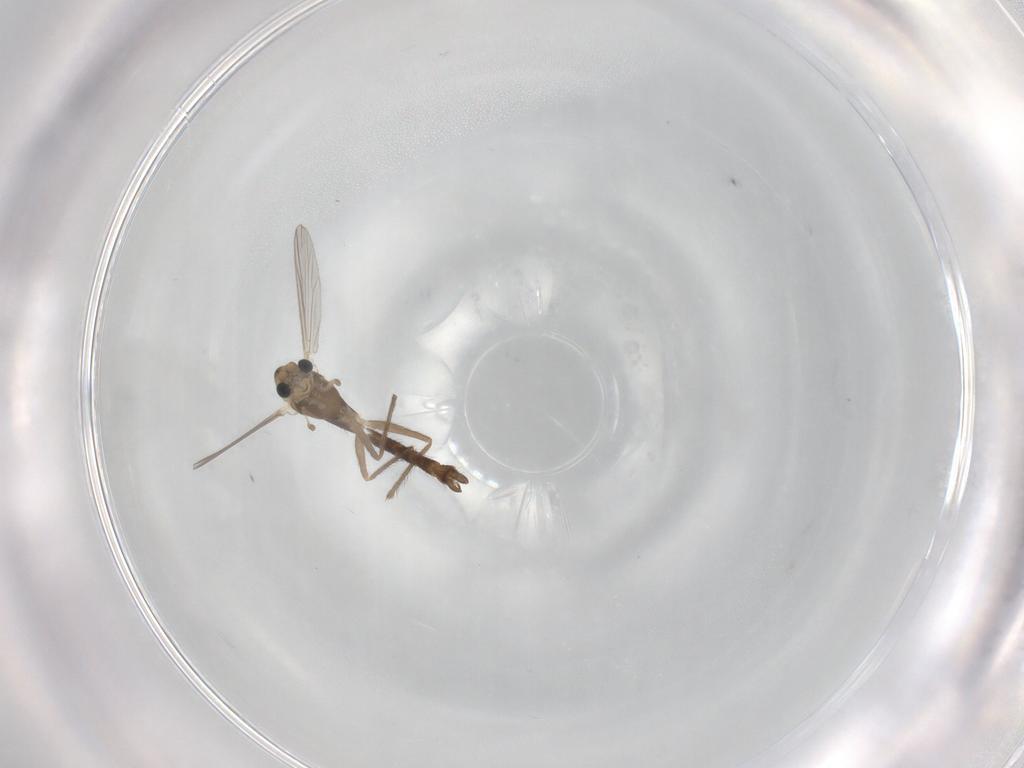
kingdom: Animalia
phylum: Arthropoda
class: Insecta
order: Diptera
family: Chironomidae
